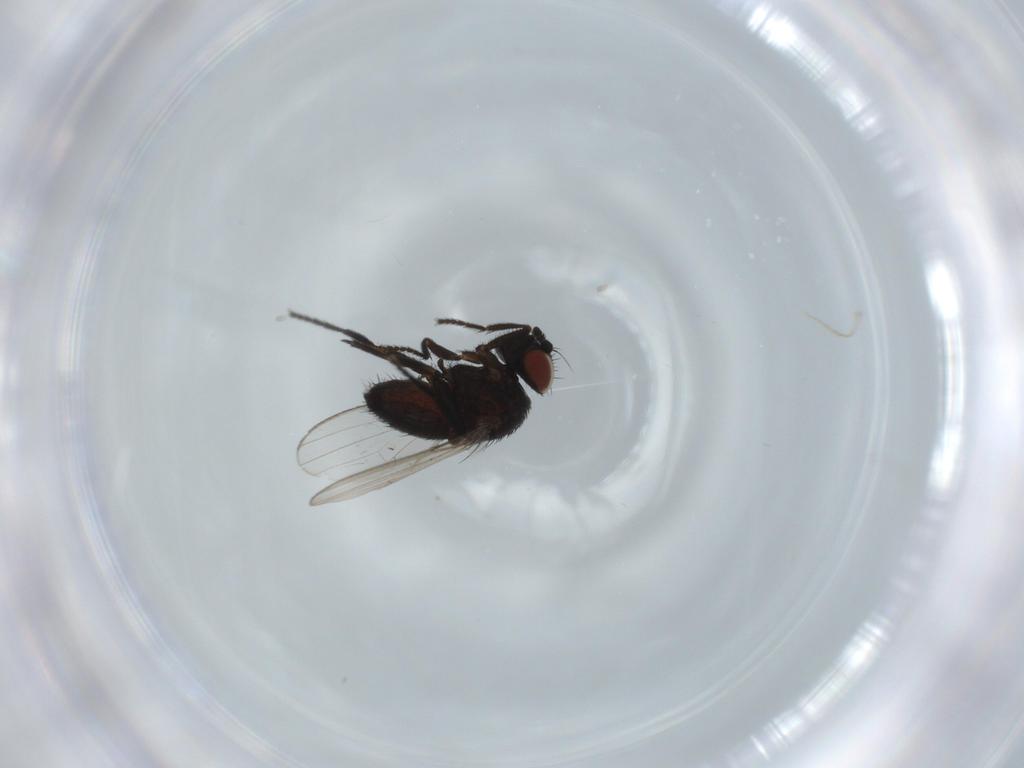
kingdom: Animalia
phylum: Arthropoda
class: Insecta
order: Diptera
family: Milichiidae
